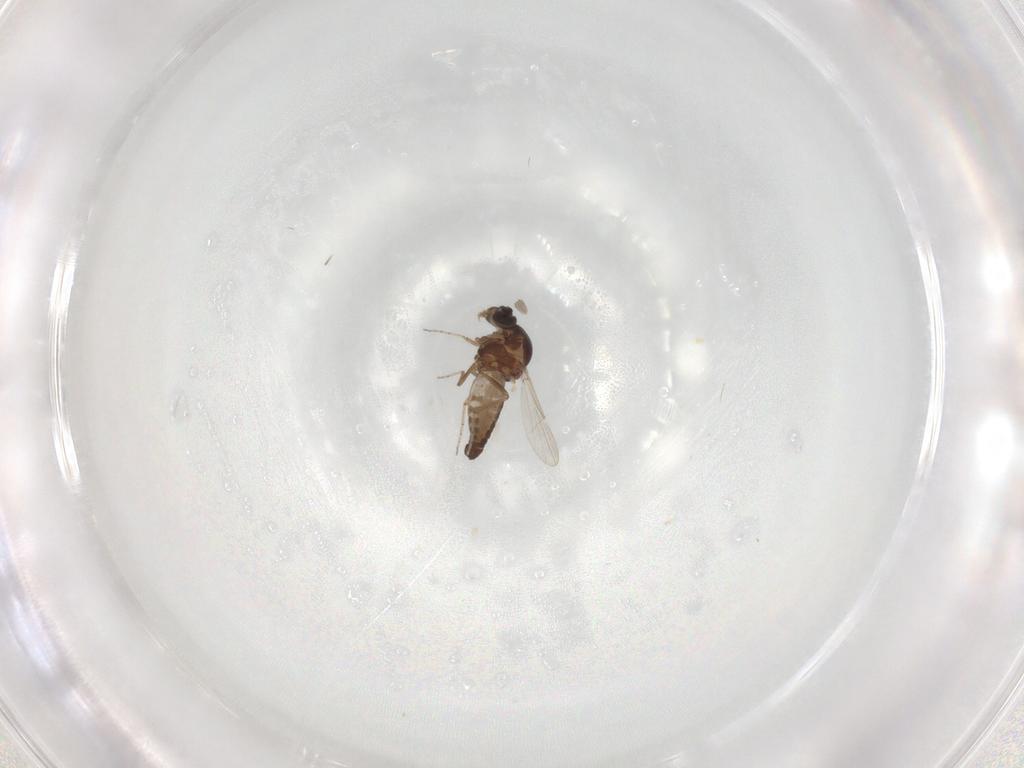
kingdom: Animalia
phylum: Arthropoda
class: Insecta
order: Diptera
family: Ceratopogonidae
